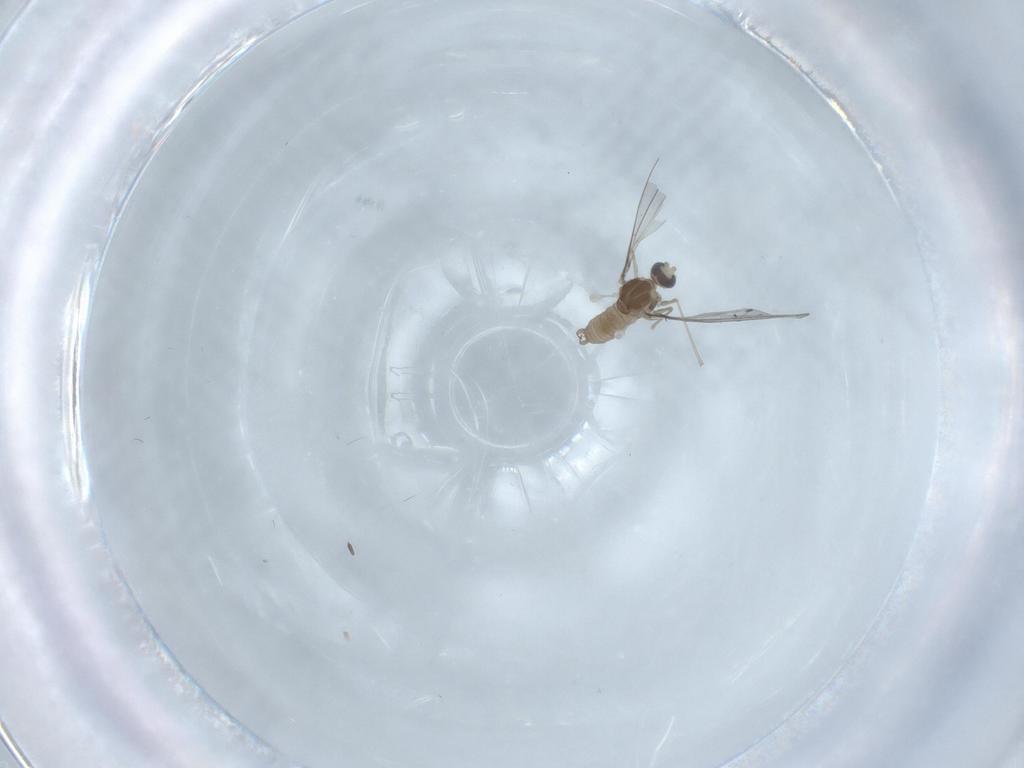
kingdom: Animalia
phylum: Arthropoda
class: Insecta
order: Diptera
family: Cecidomyiidae
